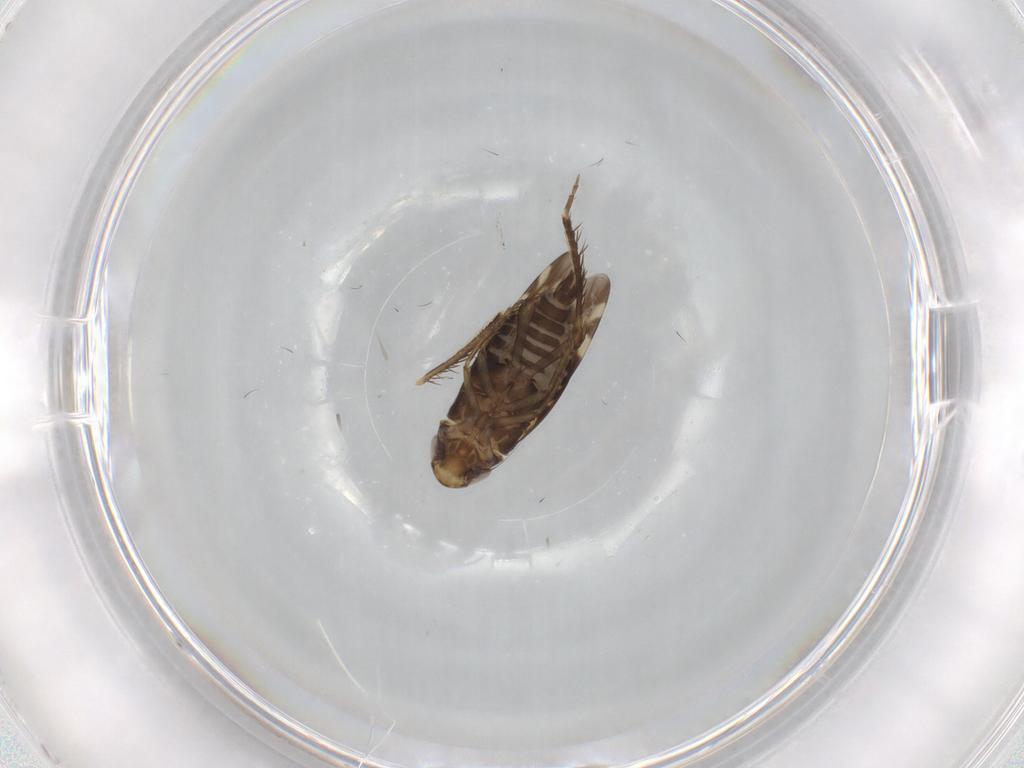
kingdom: Animalia
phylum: Arthropoda
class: Insecta
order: Hemiptera
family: Cicadellidae
